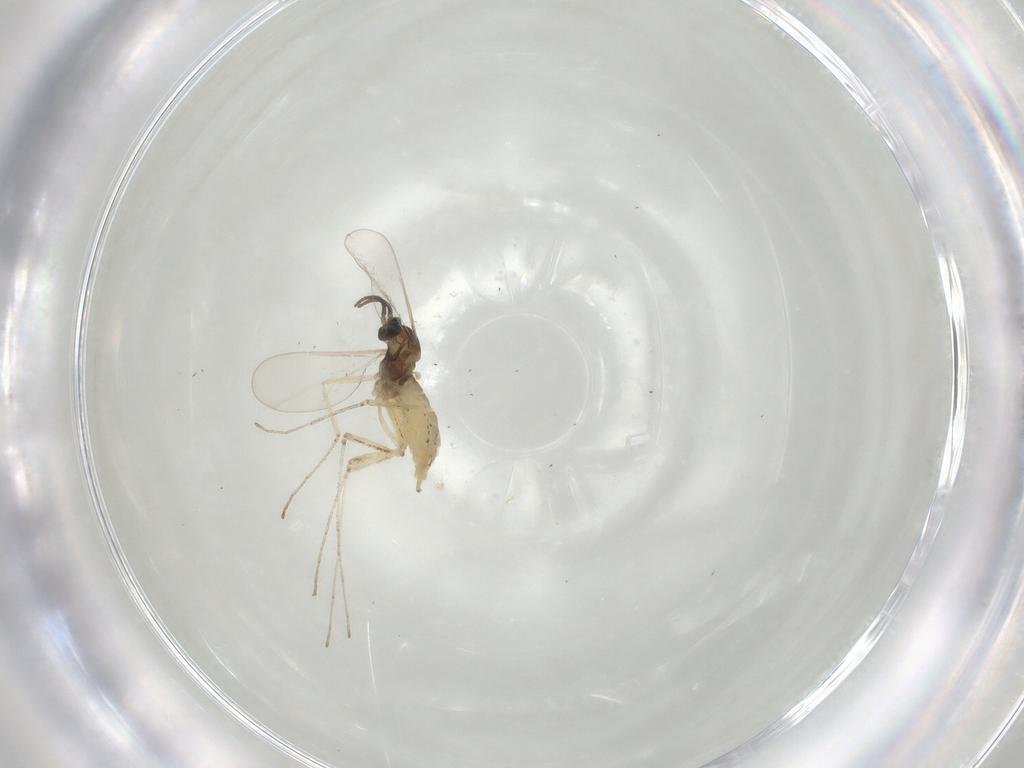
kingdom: Animalia
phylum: Arthropoda
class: Insecta
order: Diptera
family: Cecidomyiidae
